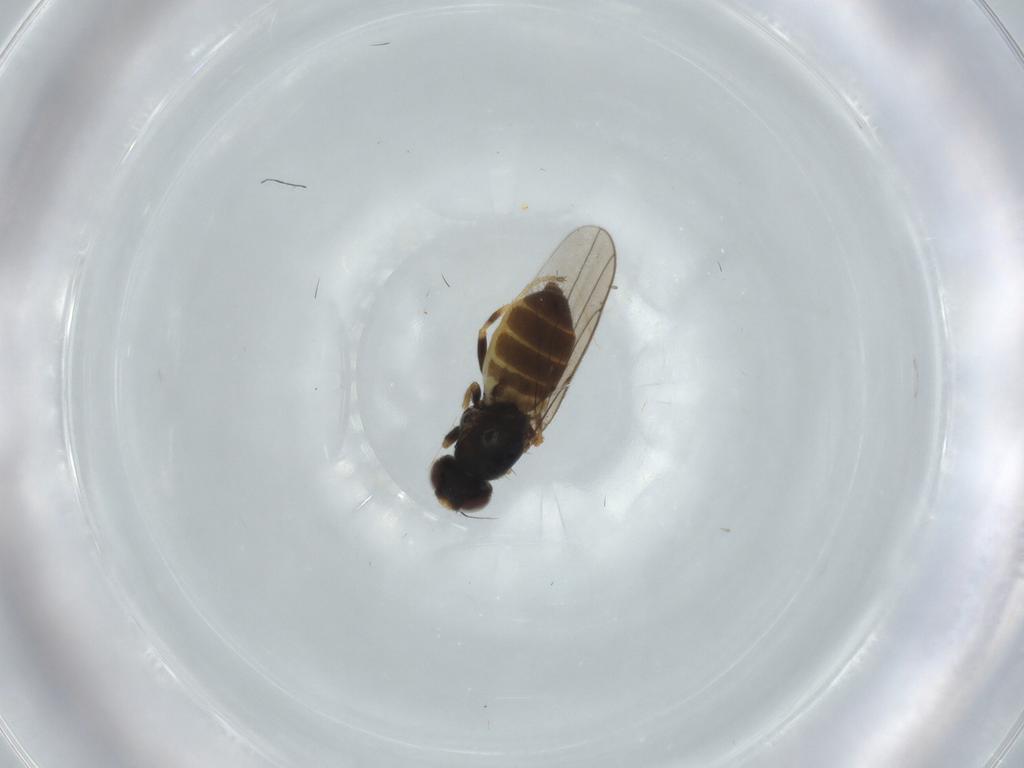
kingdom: Animalia
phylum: Arthropoda
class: Insecta
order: Diptera
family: Chloropidae
